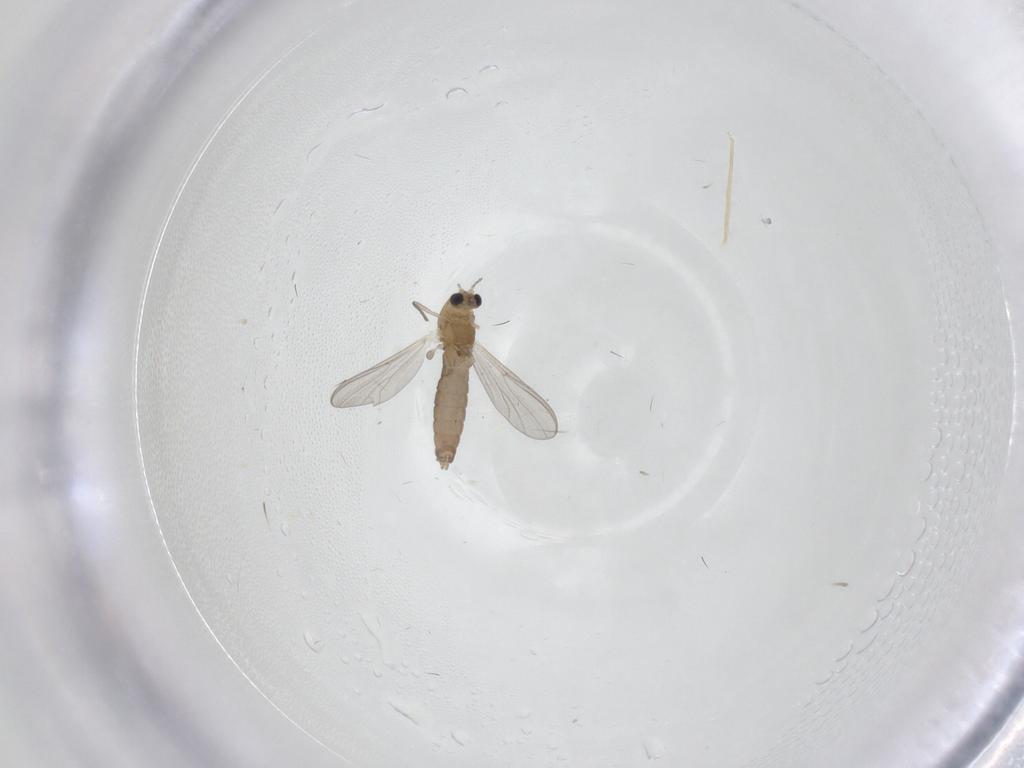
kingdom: Animalia
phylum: Arthropoda
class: Insecta
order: Diptera
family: Chironomidae
